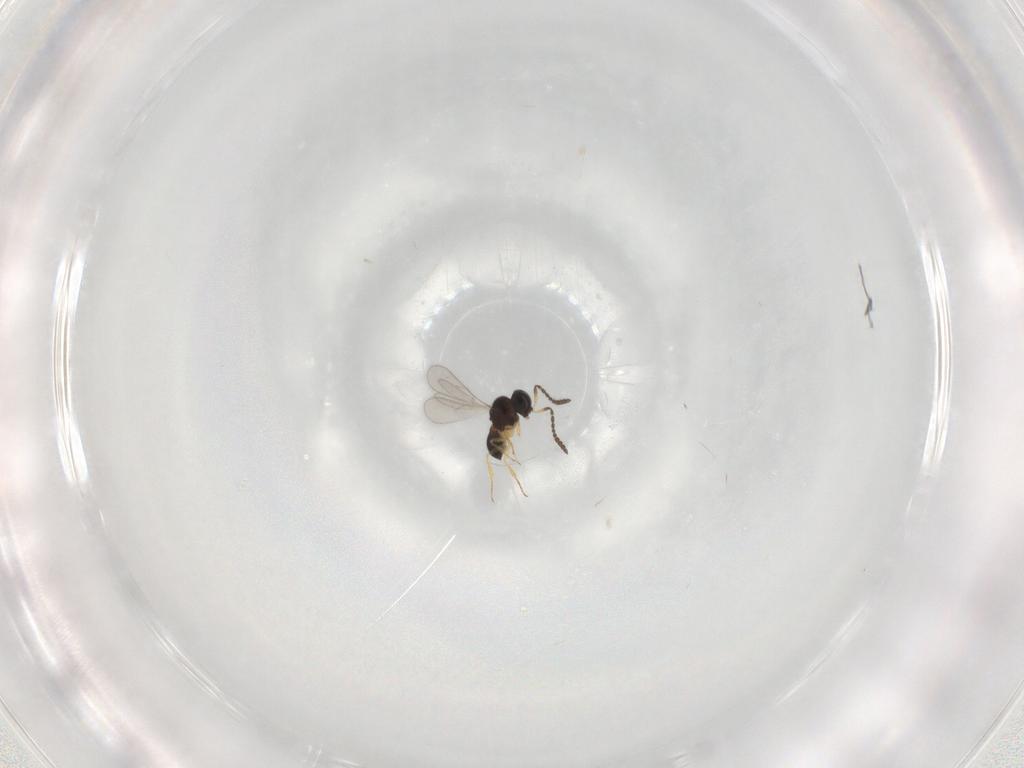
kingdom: Animalia
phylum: Arthropoda
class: Insecta
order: Hymenoptera
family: Scelionidae
